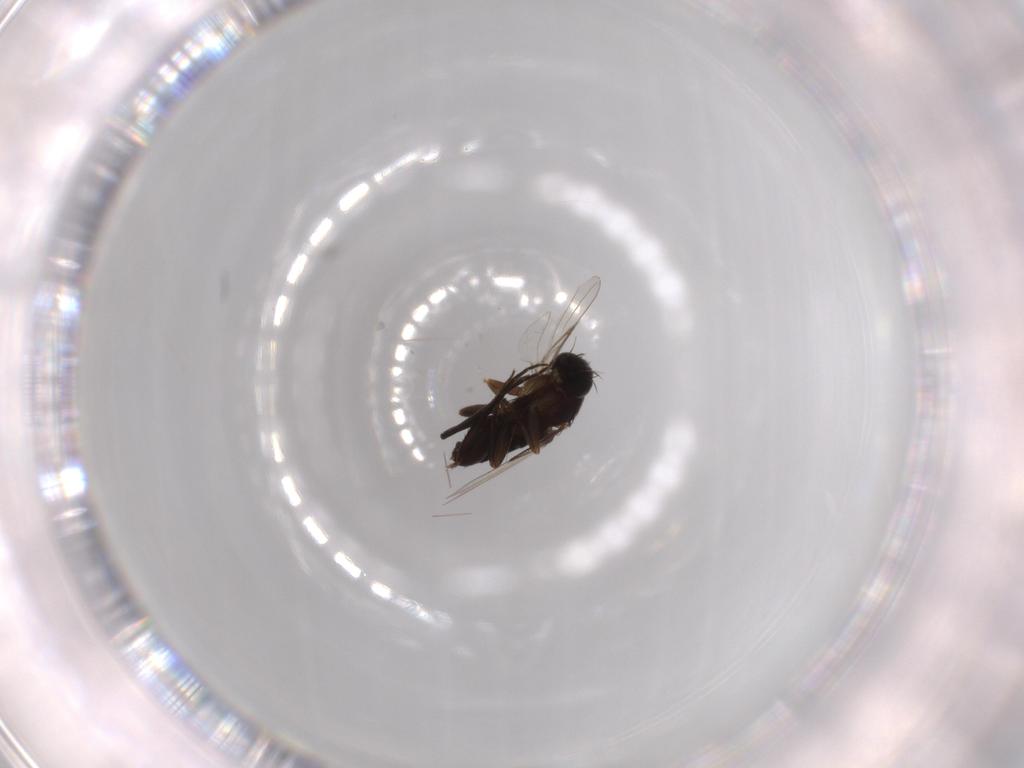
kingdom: Animalia
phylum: Arthropoda
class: Insecta
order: Diptera
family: Phoridae
